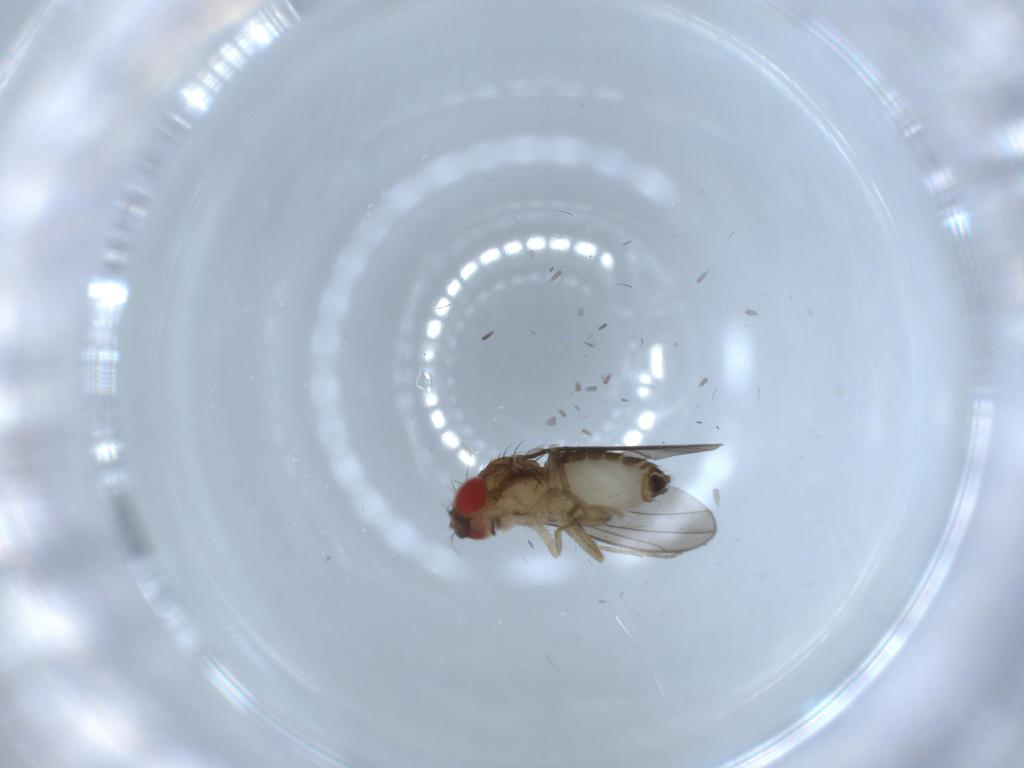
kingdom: Animalia
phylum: Arthropoda
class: Insecta
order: Diptera
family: Drosophilidae
